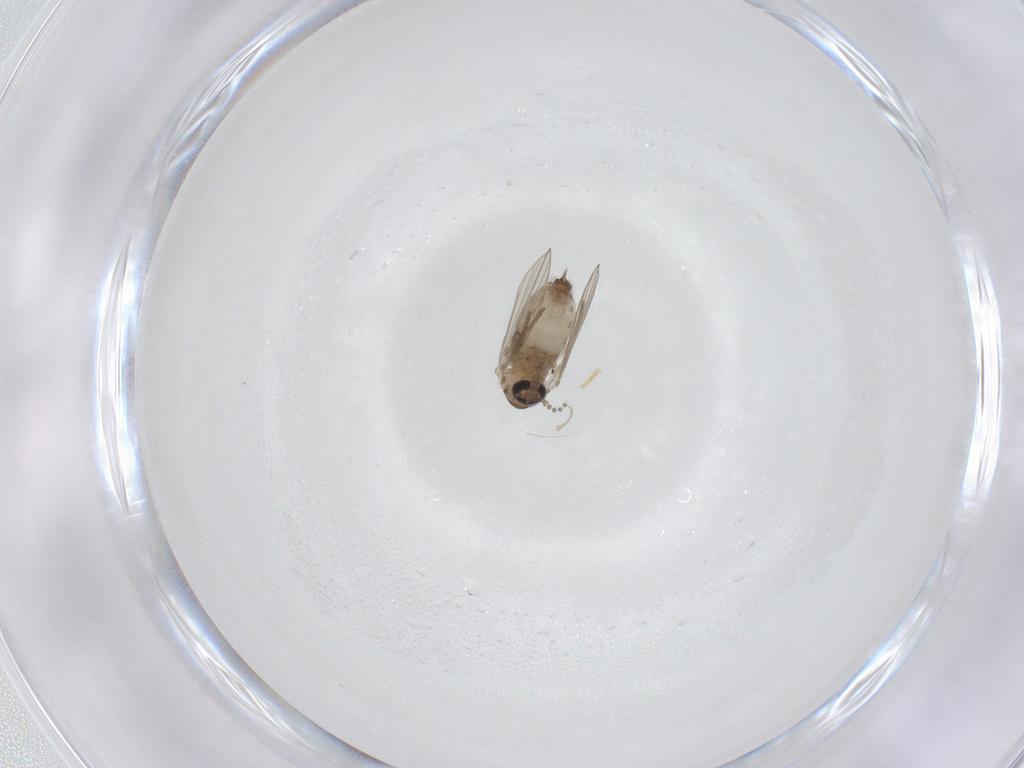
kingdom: Animalia
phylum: Arthropoda
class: Insecta
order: Diptera
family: Psychodidae
